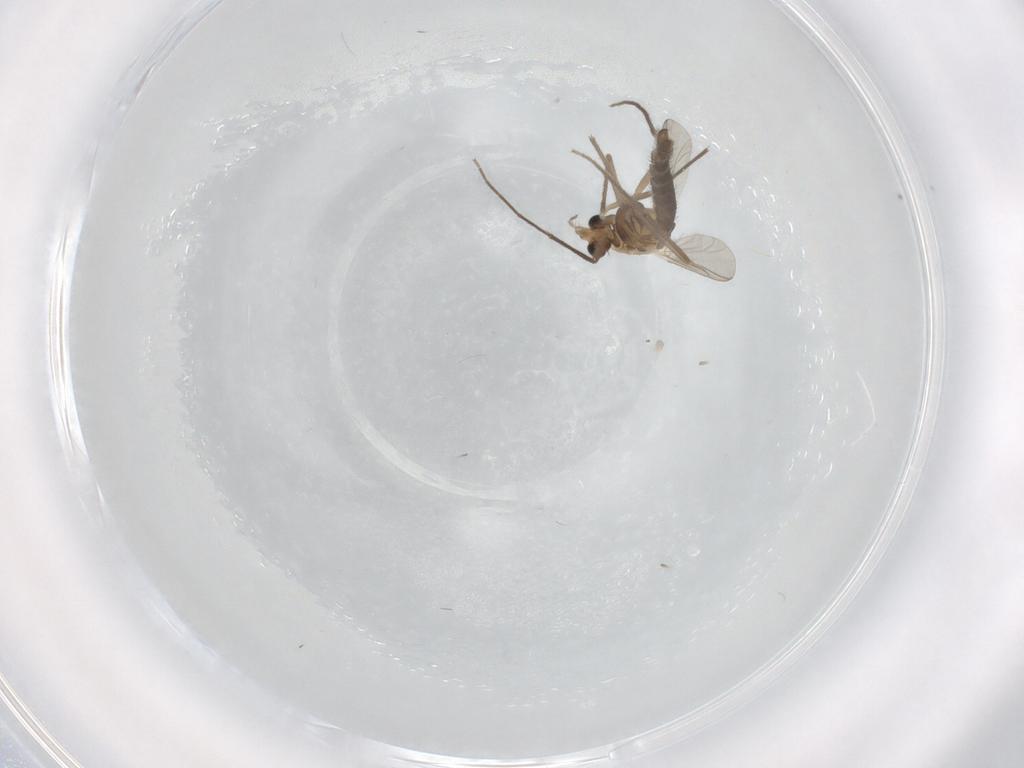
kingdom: Animalia
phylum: Arthropoda
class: Insecta
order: Diptera
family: Chironomidae
